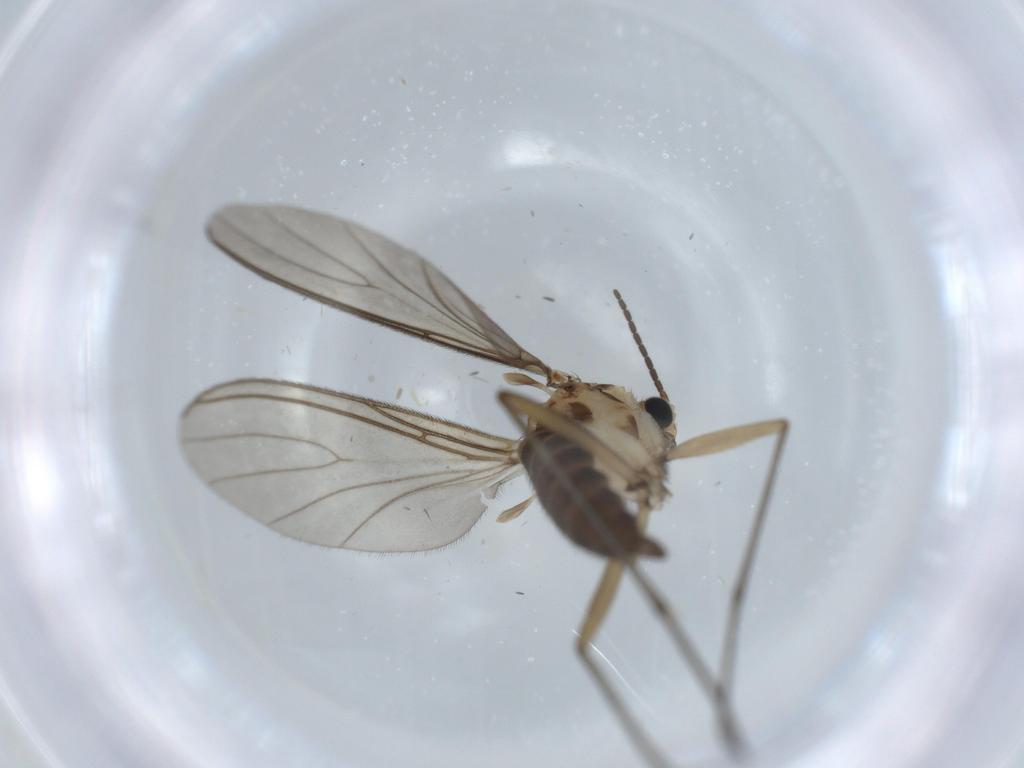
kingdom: Animalia
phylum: Arthropoda
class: Insecta
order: Diptera
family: Sciaridae
